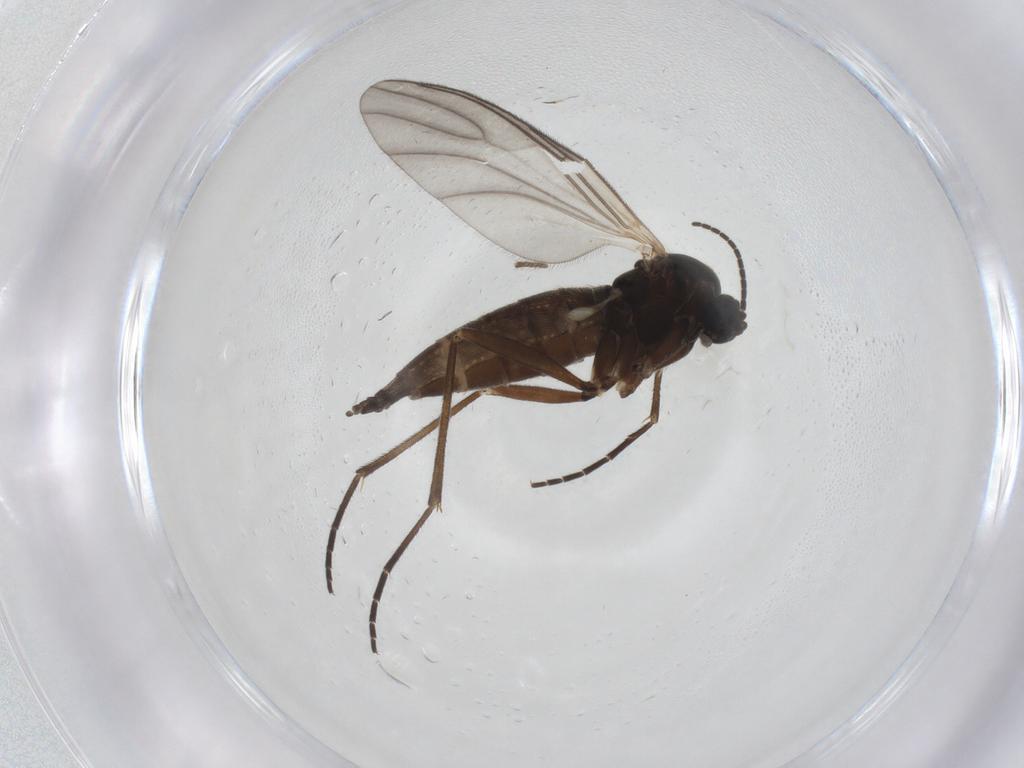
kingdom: Animalia
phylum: Arthropoda
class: Insecta
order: Diptera
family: Sciaridae
